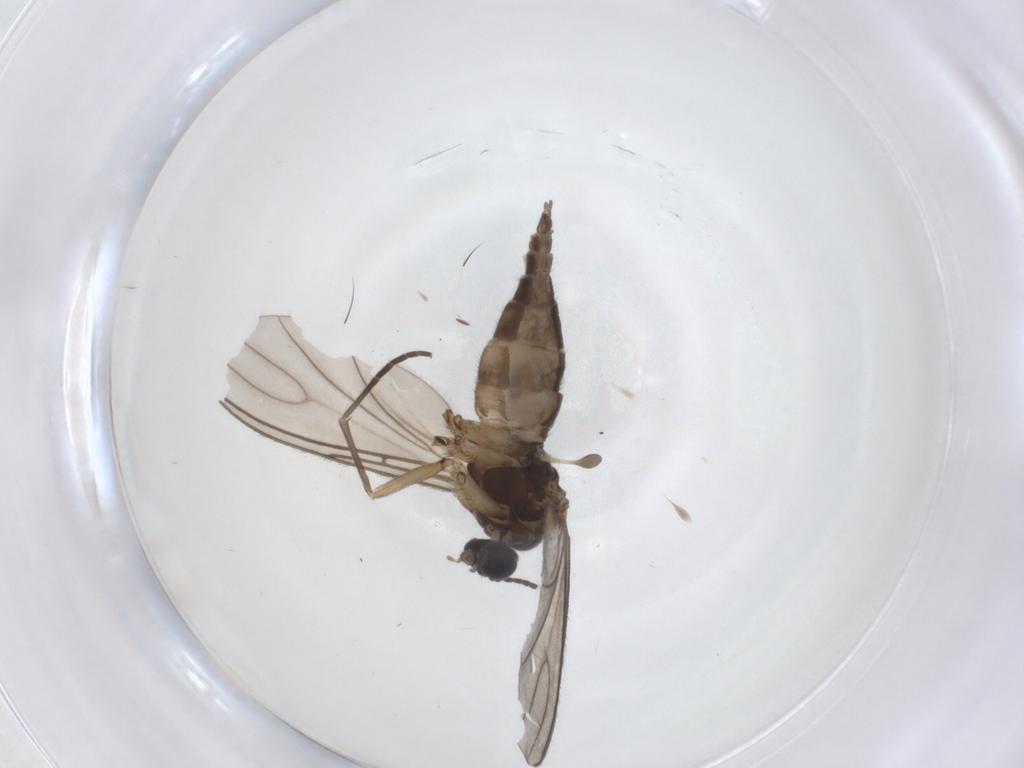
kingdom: Animalia
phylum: Arthropoda
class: Insecta
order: Diptera
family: Sciaridae
